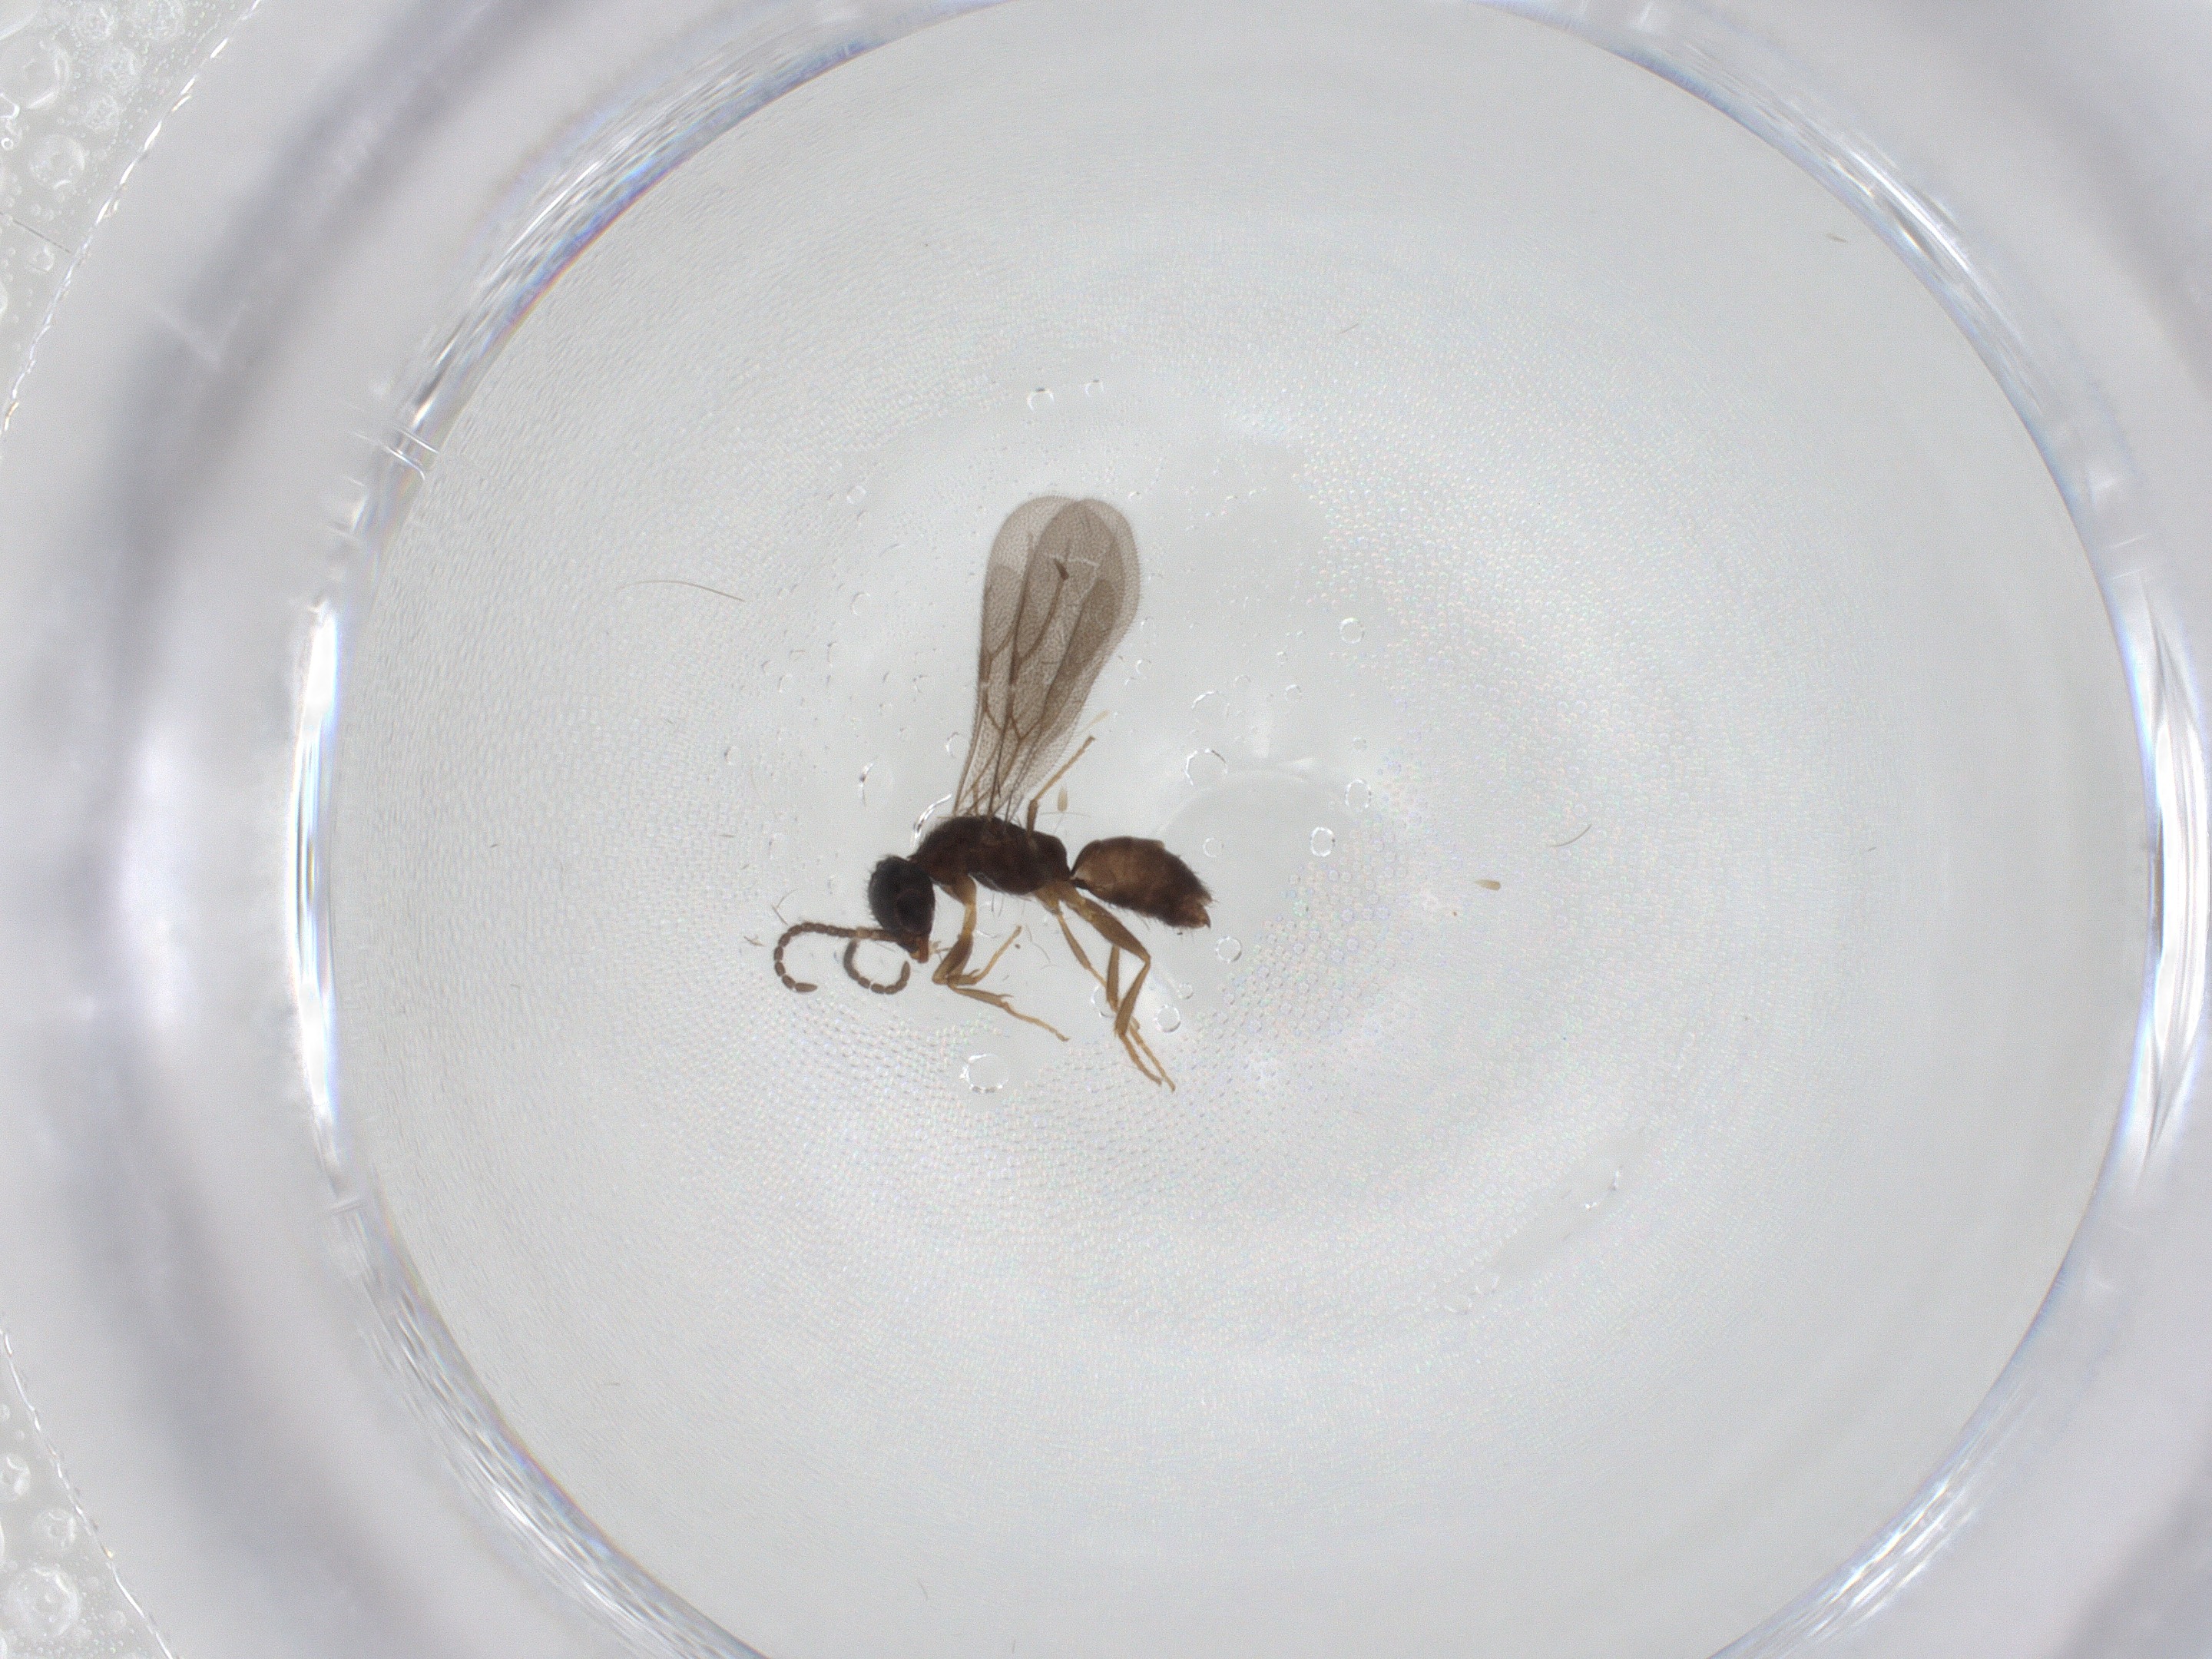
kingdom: Animalia
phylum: Arthropoda
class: Insecta
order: Hymenoptera
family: Bethylidae
